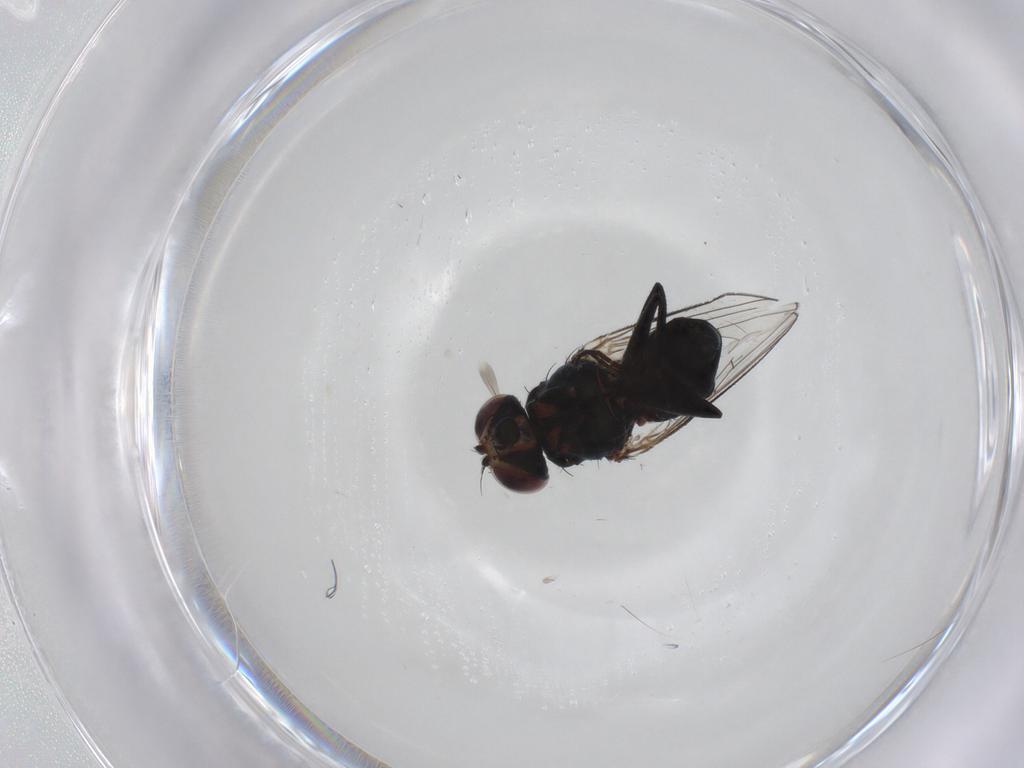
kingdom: Animalia
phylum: Arthropoda
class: Insecta
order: Diptera
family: Carnidae
